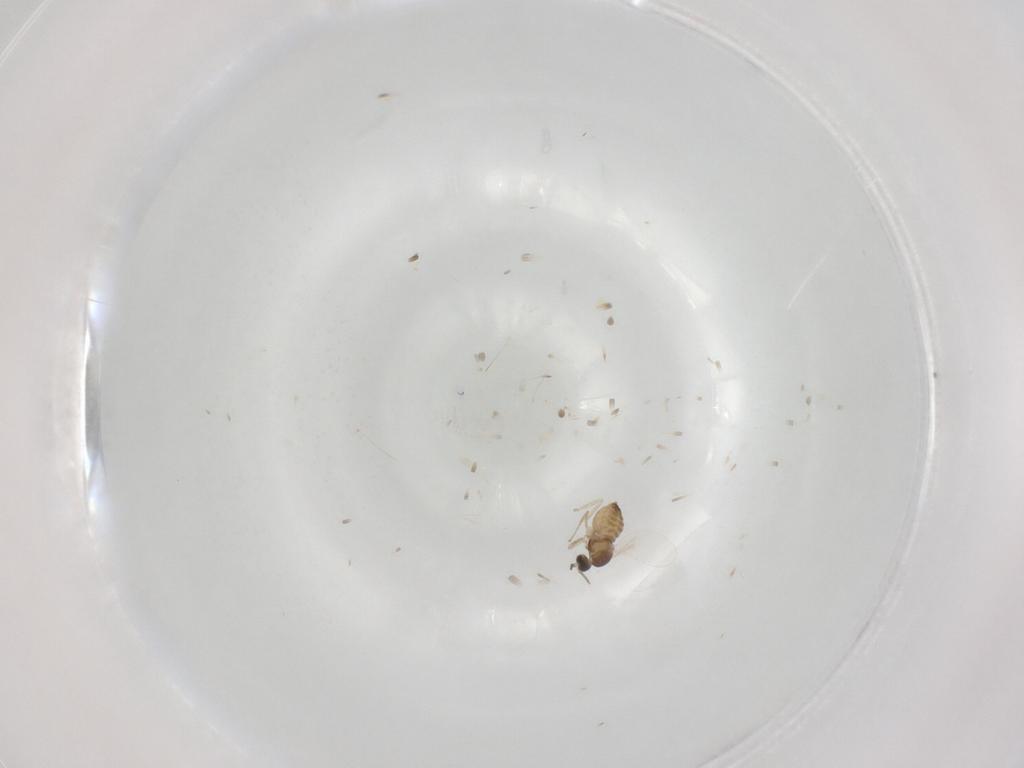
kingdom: Animalia
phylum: Arthropoda
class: Insecta
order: Diptera
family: Cecidomyiidae
